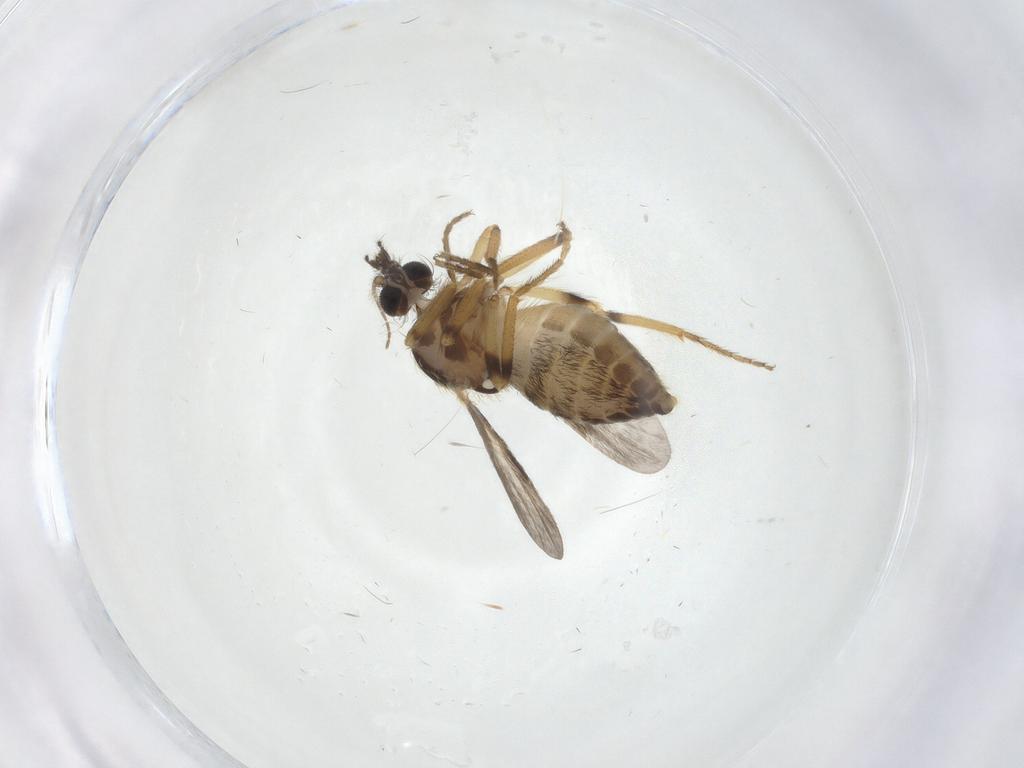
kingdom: Animalia
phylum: Arthropoda
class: Insecta
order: Diptera
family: Ceratopogonidae
